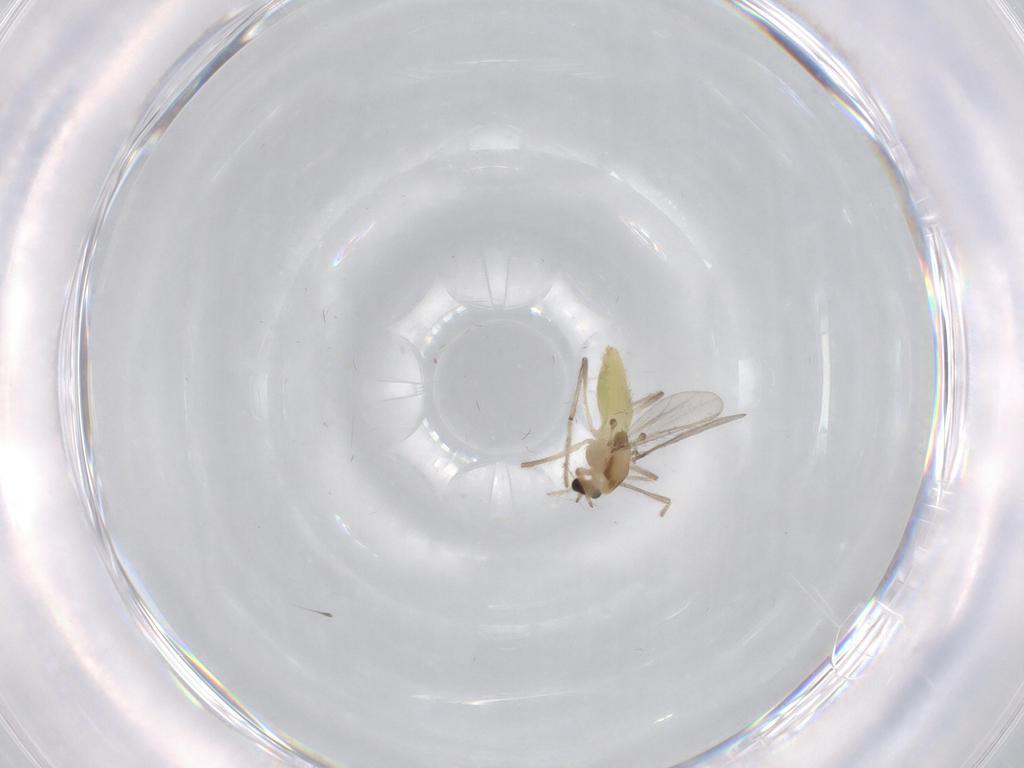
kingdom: Animalia
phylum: Arthropoda
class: Insecta
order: Diptera
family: Chironomidae
